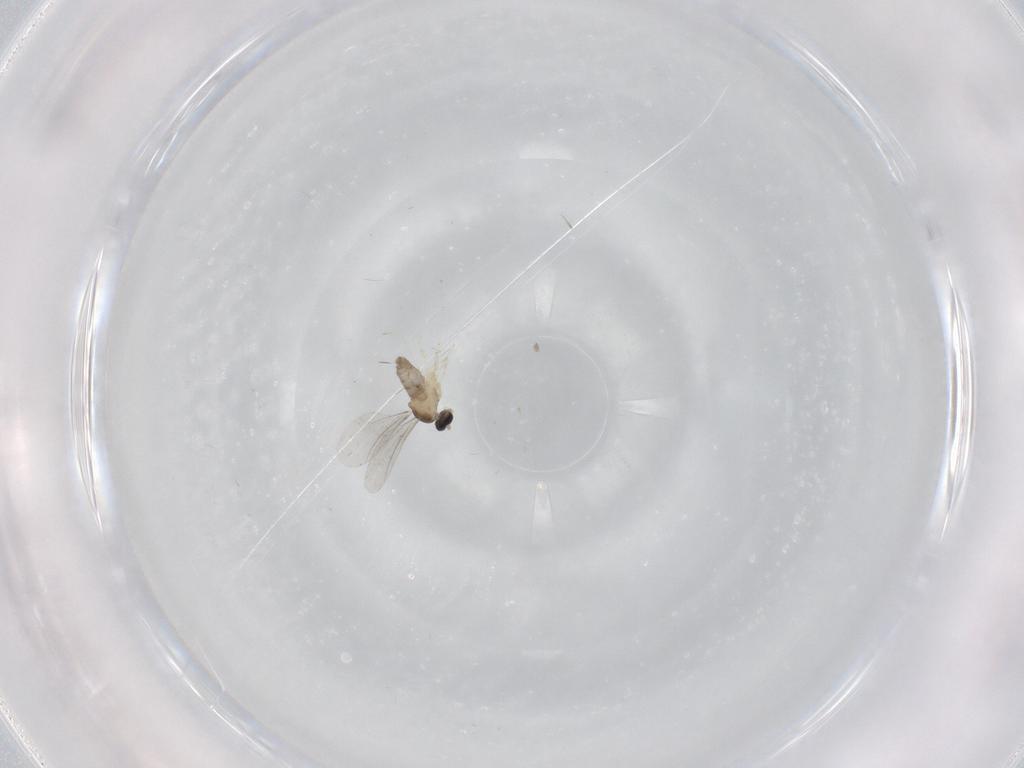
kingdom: Animalia
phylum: Arthropoda
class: Insecta
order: Diptera
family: Cecidomyiidae
